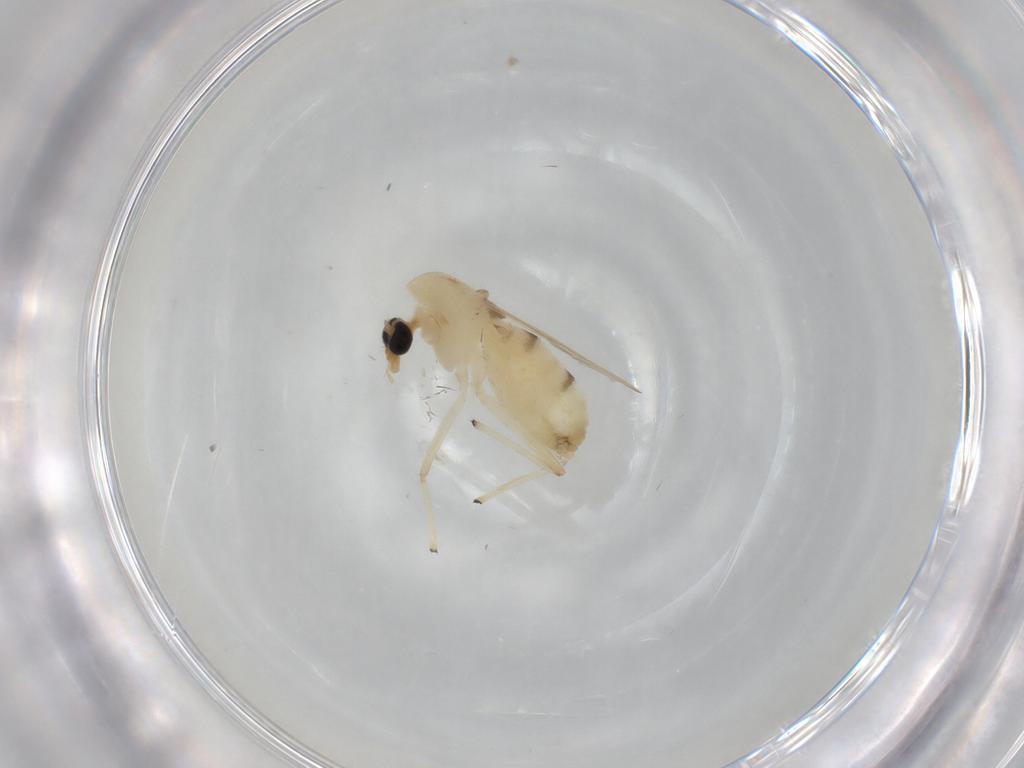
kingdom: Animalia
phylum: Arthropoda
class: Insecta
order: Diptera
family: Chironomidae
